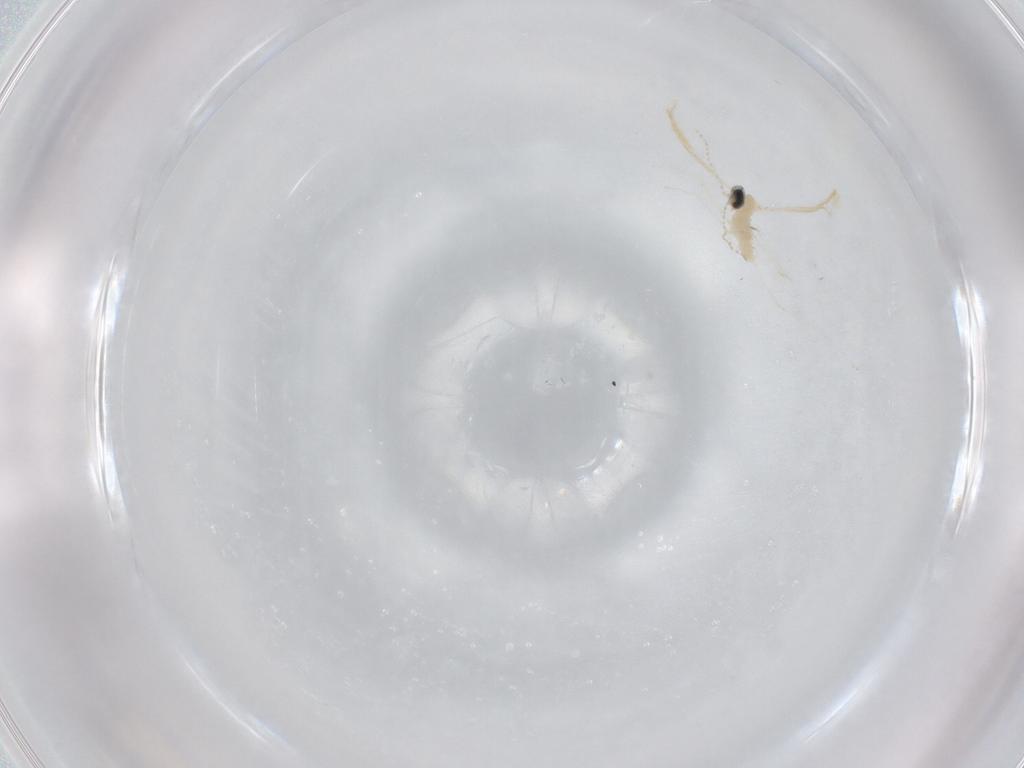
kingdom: Animalia
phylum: Arthropoda
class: Insecta
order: Diptera
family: Cecidomyiidae
